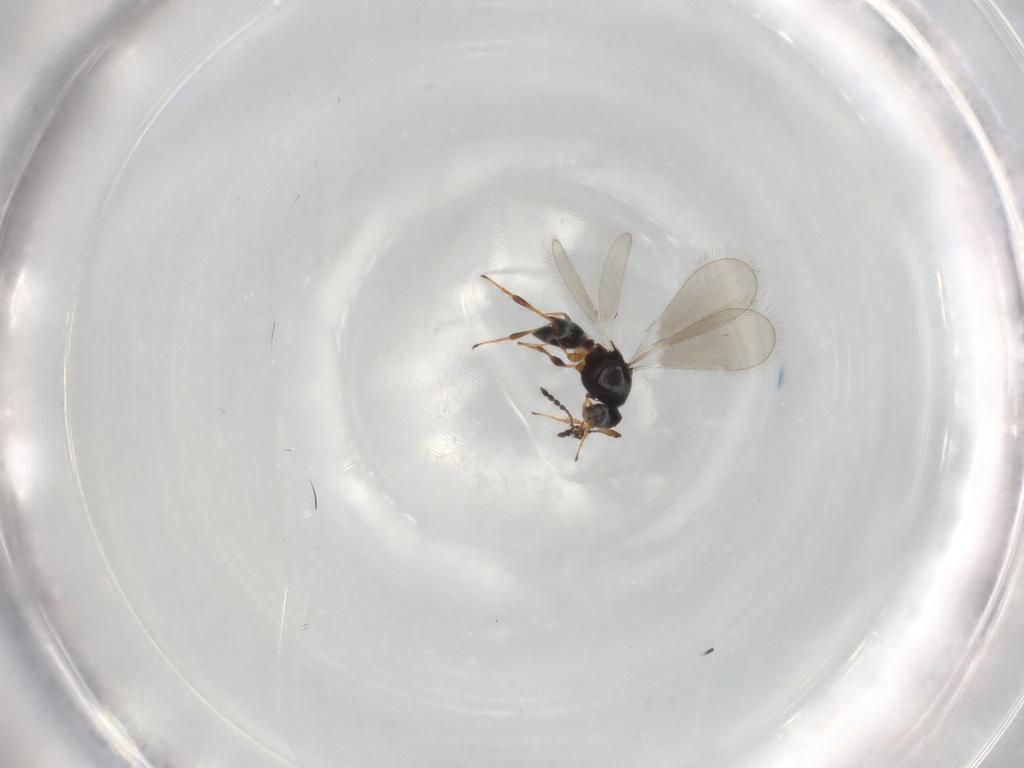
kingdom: Animalia
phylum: Arthropoda
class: Insecta
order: Hymenoptera
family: Platygastridae
